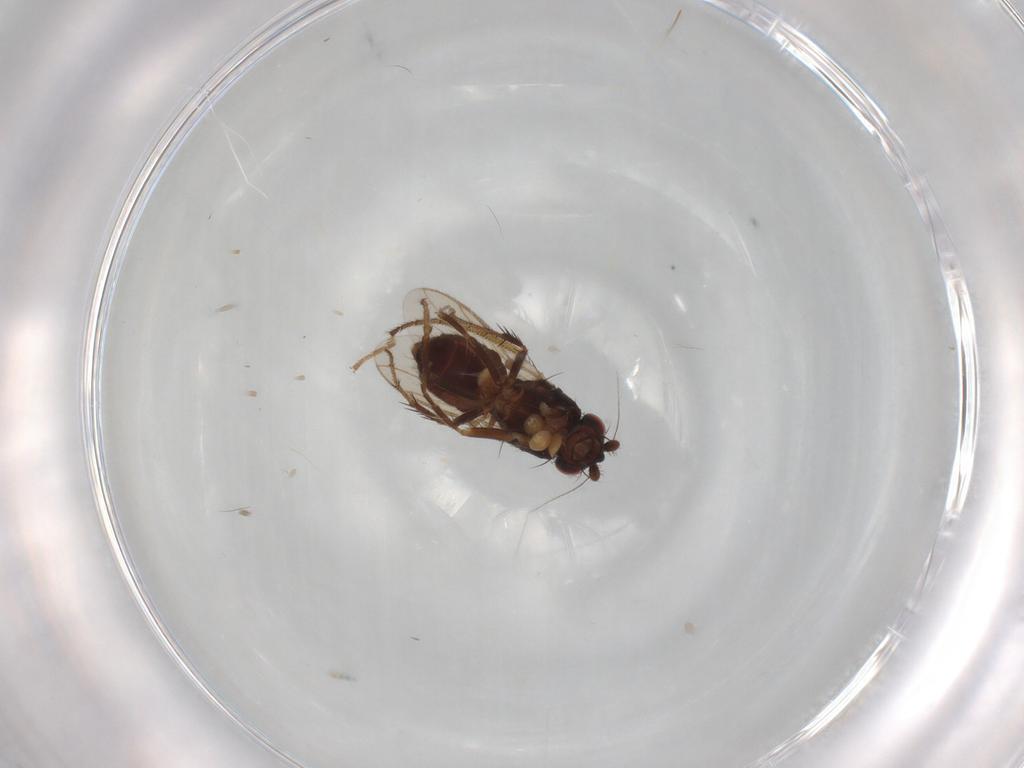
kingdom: Animalia
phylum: Arthropoda
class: Insecta
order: Diptera
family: Dolichopodidae
